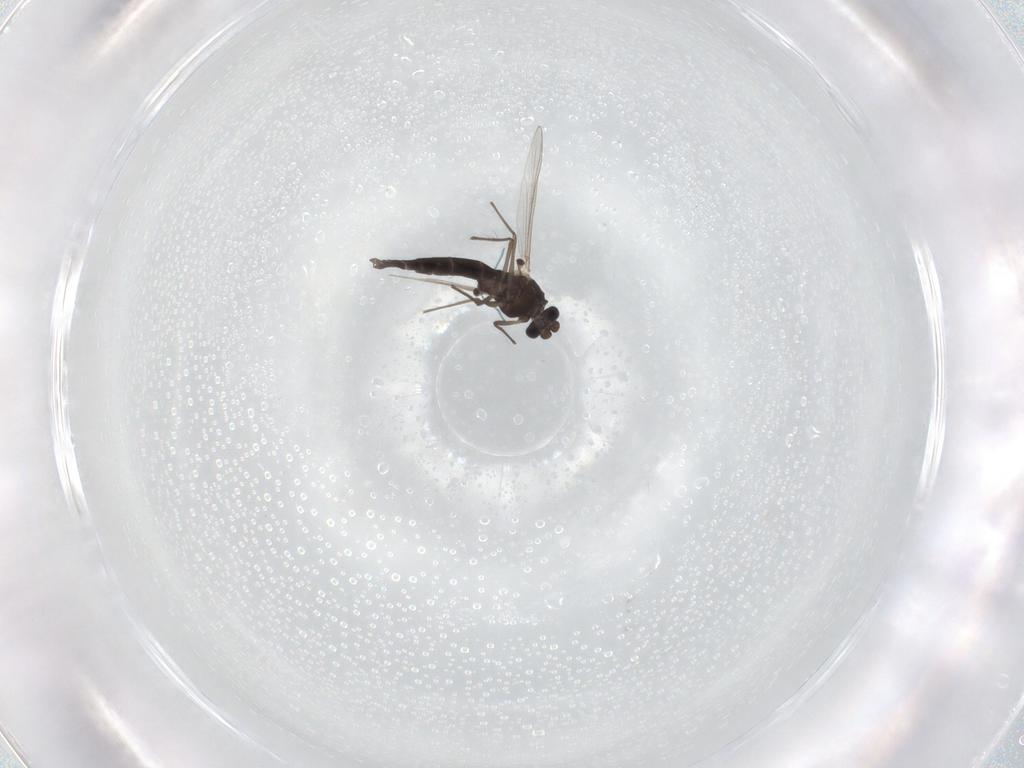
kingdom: Animalia
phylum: Arthropoda
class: Insecta
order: Diptera
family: Chironomidae
